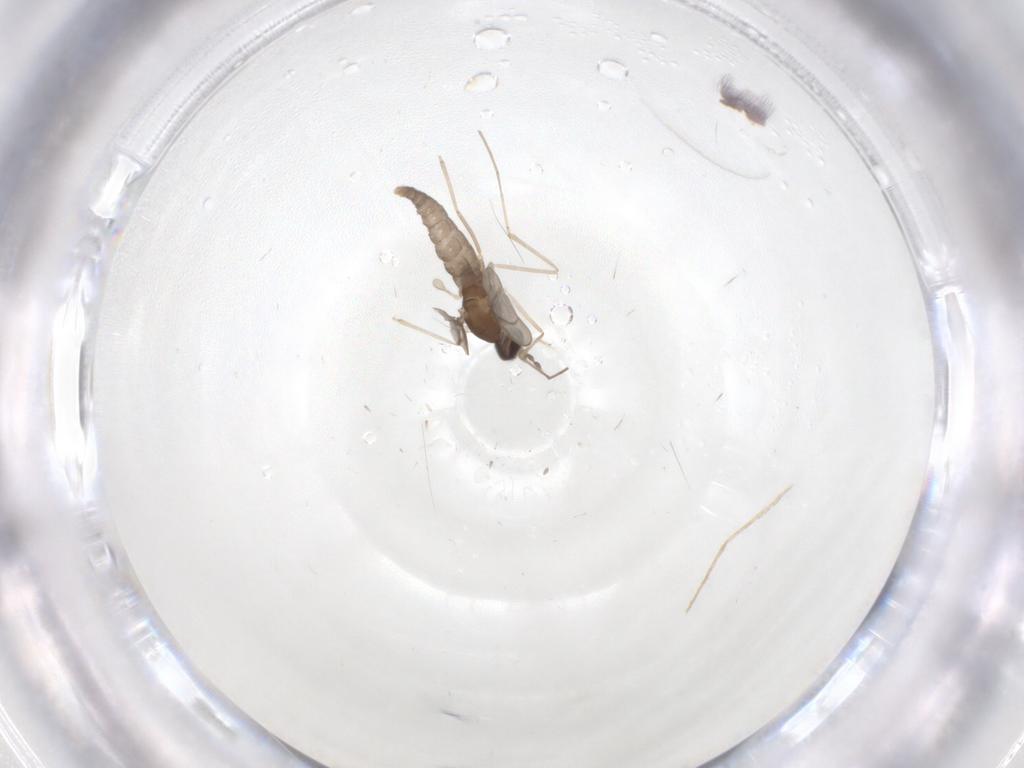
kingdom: Animalia
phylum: Arthropoda
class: Insecta
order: Diptera
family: Cecidomyiidae
